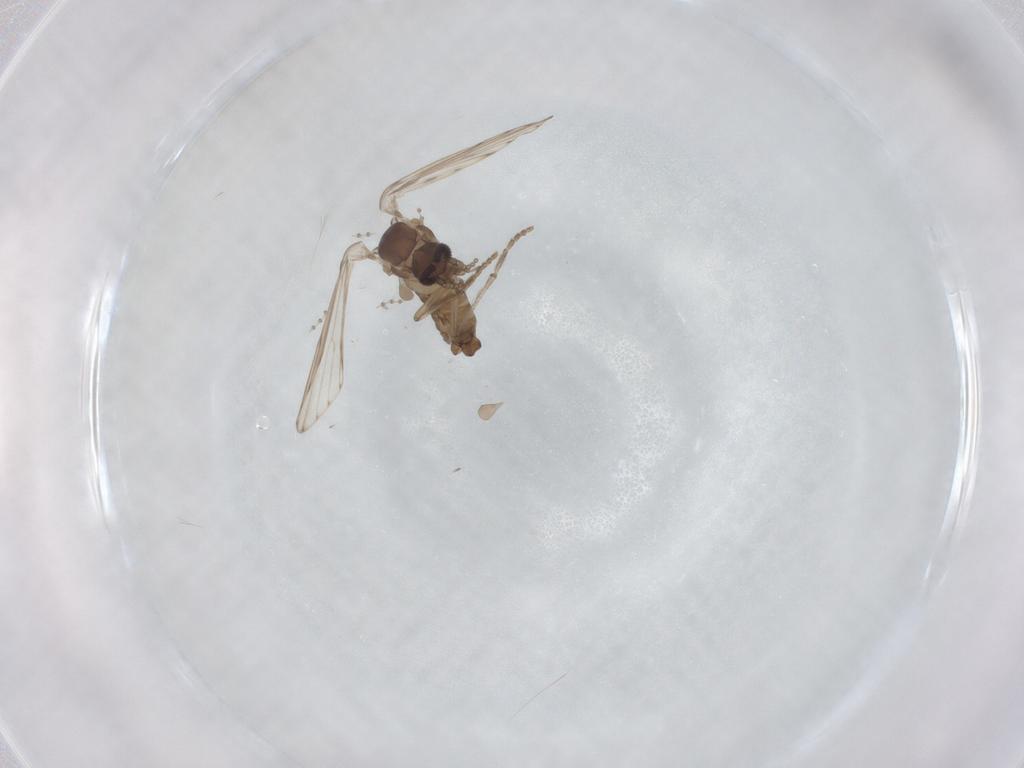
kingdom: Animalia
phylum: Arthropoda
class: Insecta
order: Diptera
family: Psychodidae
